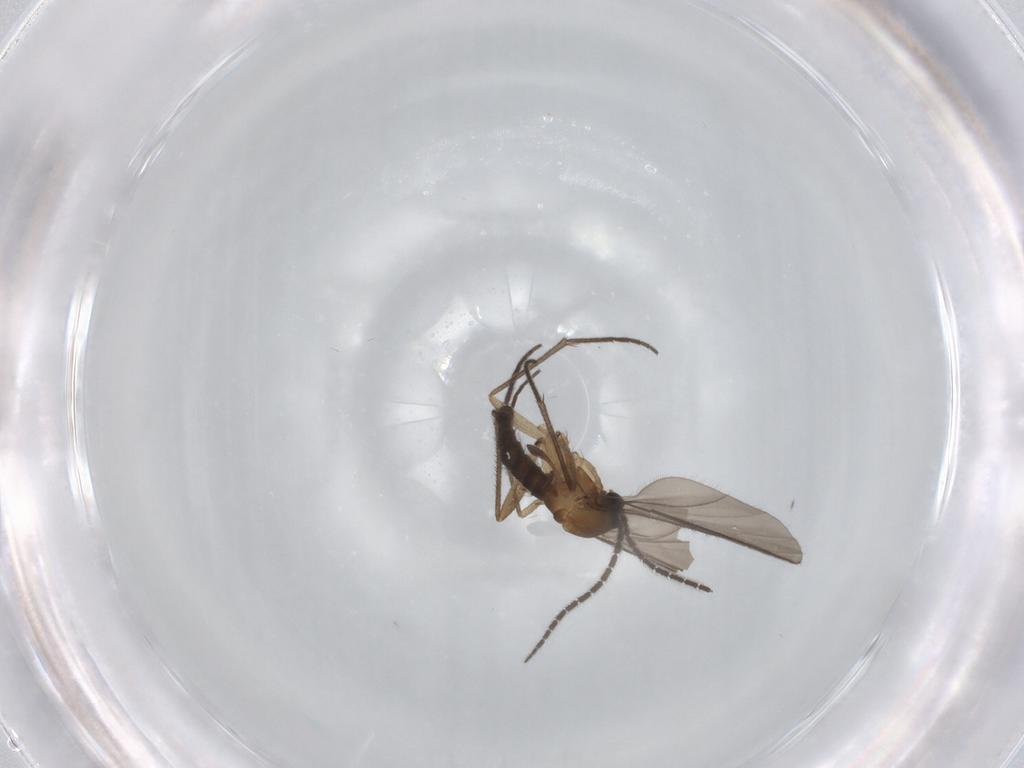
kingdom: Animalia
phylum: Arthropoda
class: Insecta
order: Diptera
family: Sciaridae
